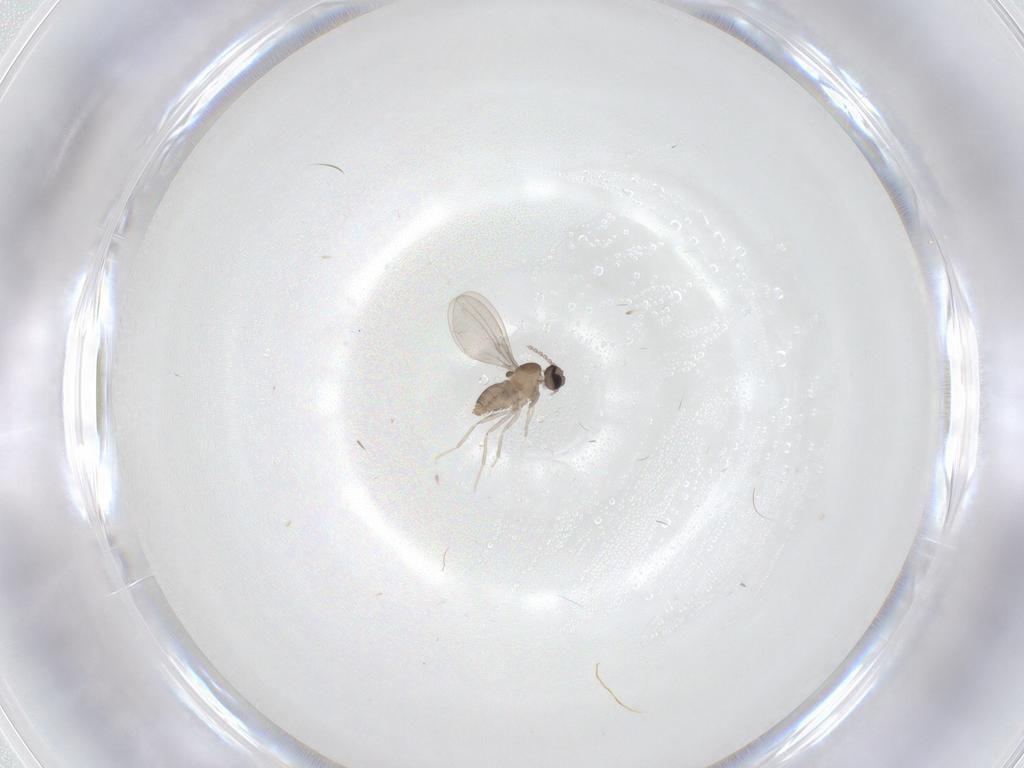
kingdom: Animalia
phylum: Arthropoda
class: Insecta
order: Diptera
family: Cecidomyiidae
